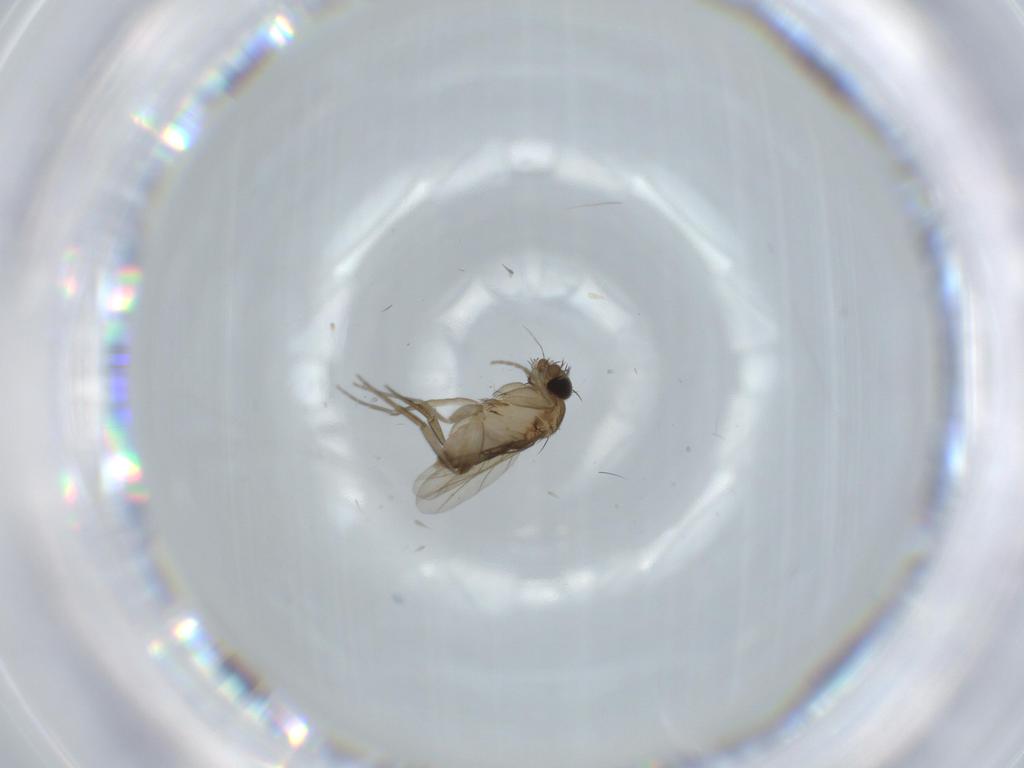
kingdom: Animalia
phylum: Arthropoda
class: Insecta
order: Diptera
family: Phoridae
